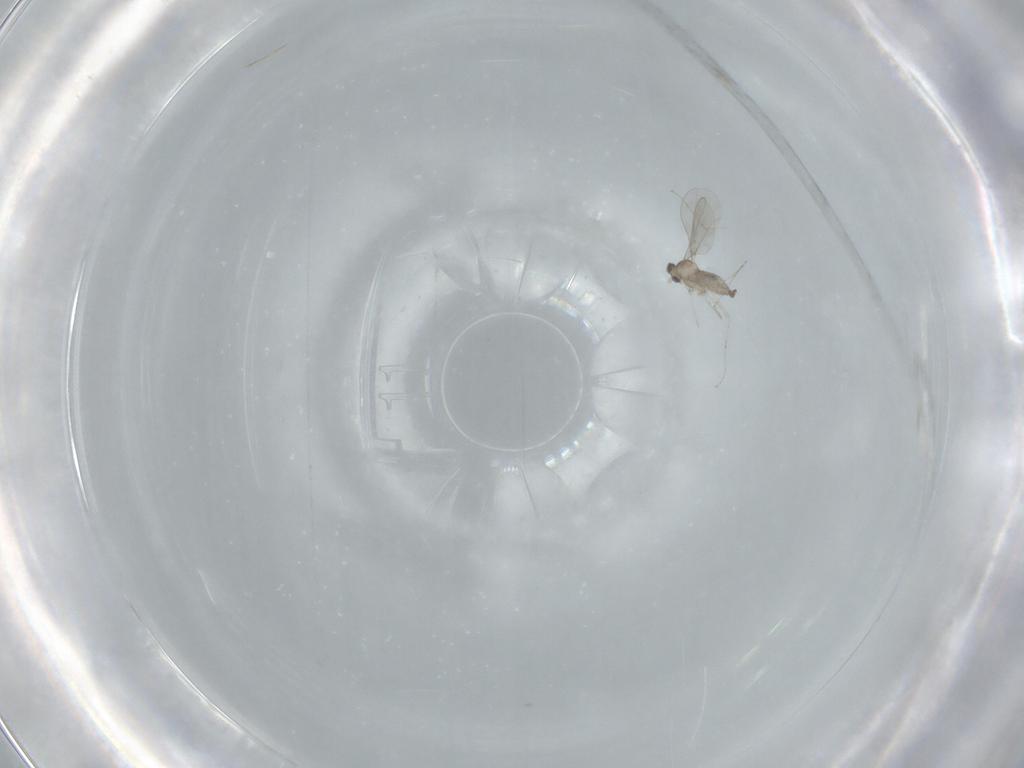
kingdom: Animalia
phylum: Arthropoda
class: Insecta
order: Diptera
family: Cecidomyiidae
